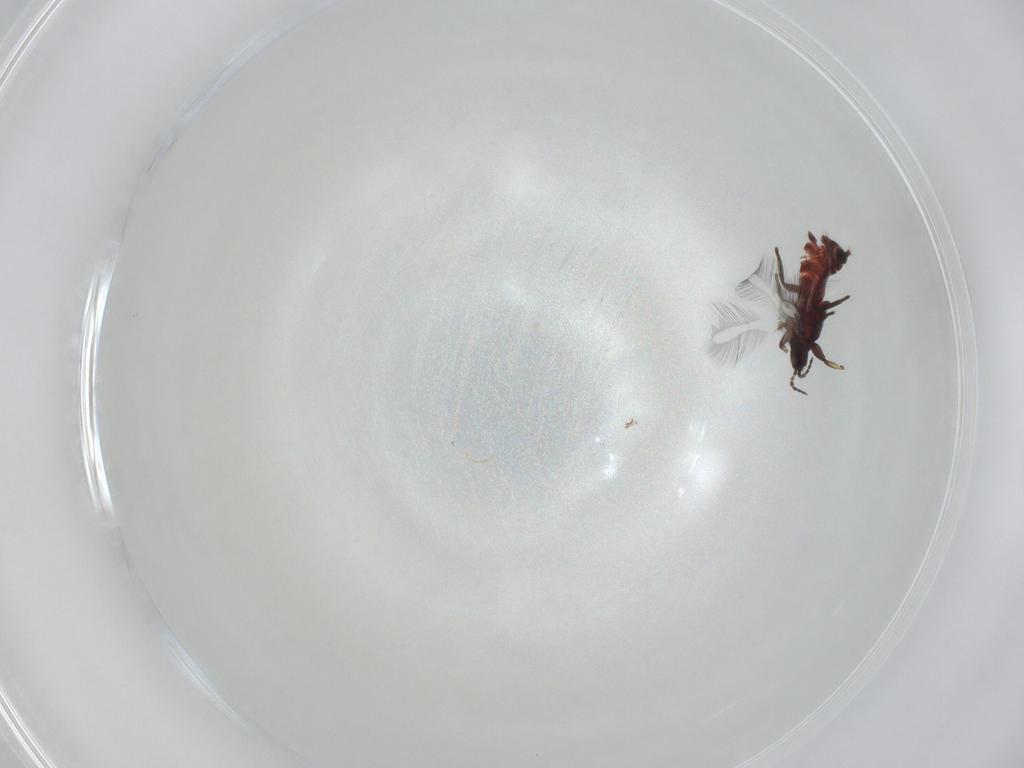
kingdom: Animalia
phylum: Arthropoda
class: Insecta
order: Thysanoptera
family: Phlaeothripidae
